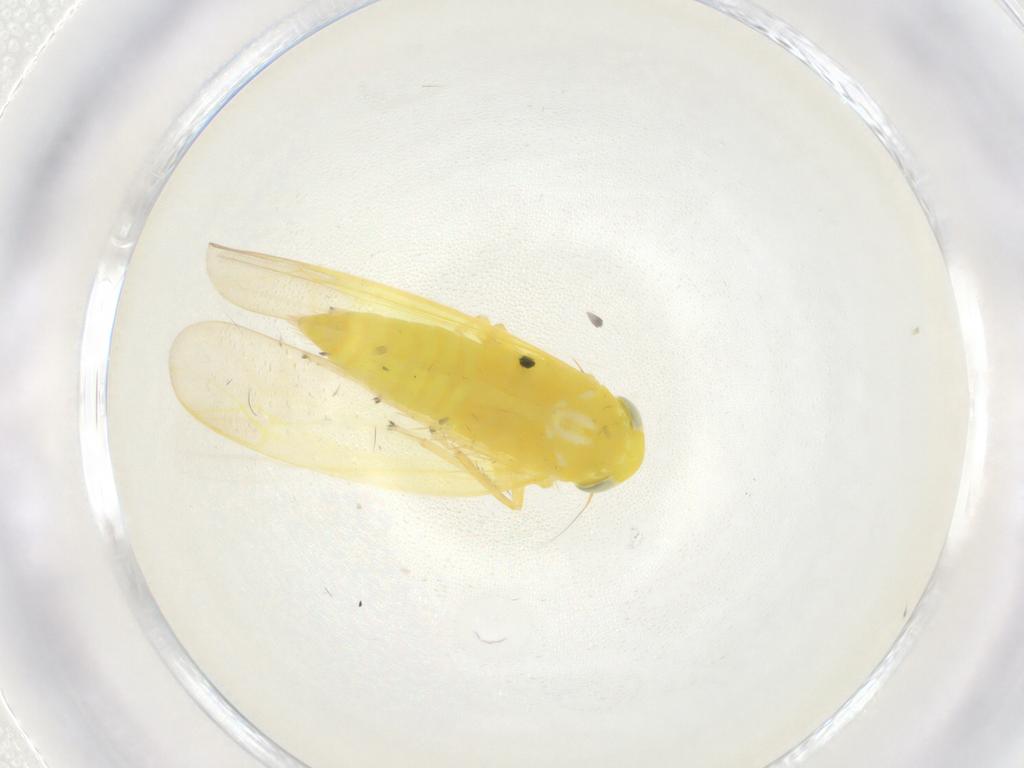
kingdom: Animalia
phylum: Arthropoda
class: Insecta
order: Hemiptera
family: Cicadellidae
